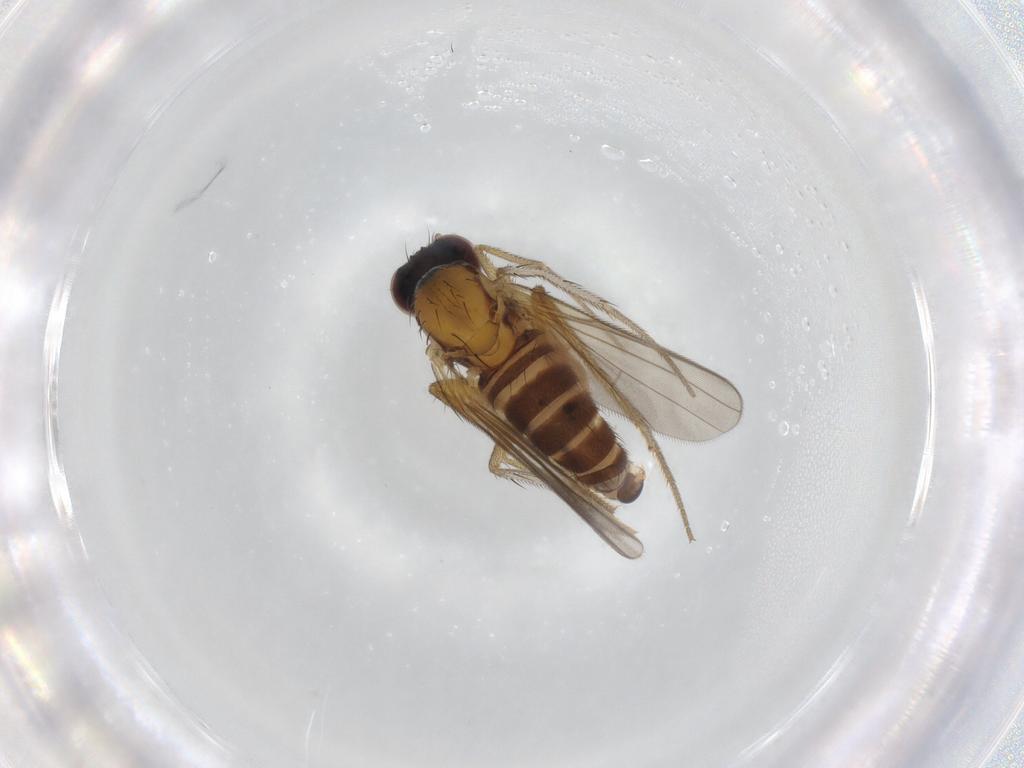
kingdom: Animalia
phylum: Arthropoda
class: Insecta
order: Diptera
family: Dolichopodidae
